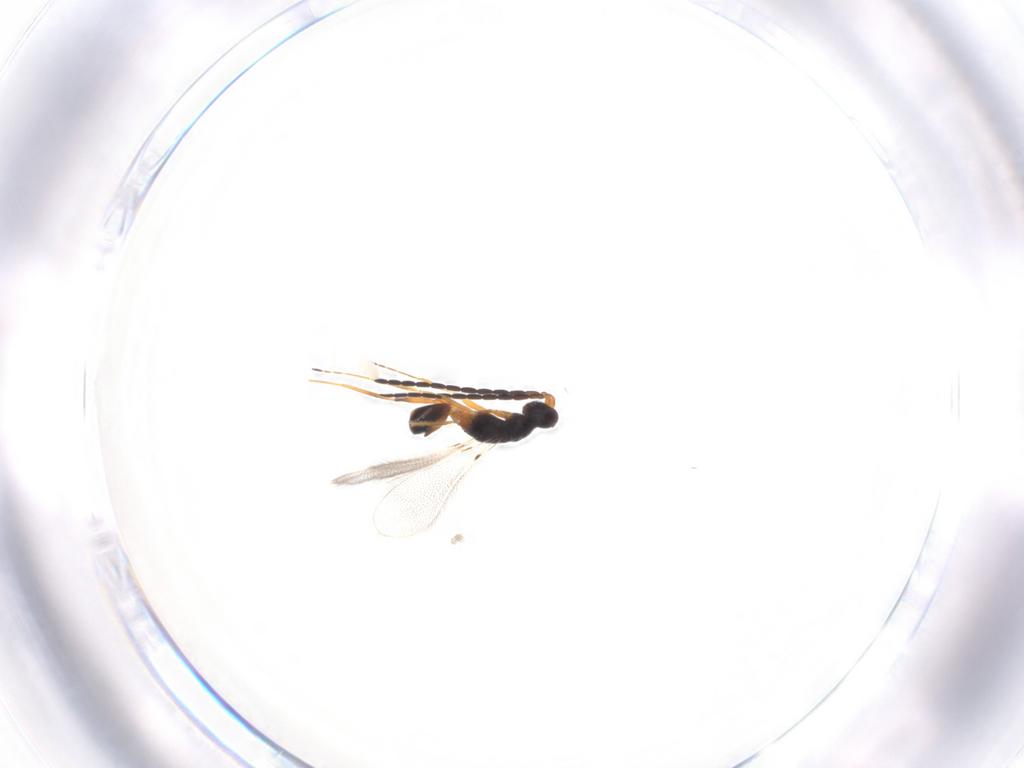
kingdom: Animalia
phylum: Arthropoda
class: Insecta
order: Hymenoptera
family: Mymaridae
